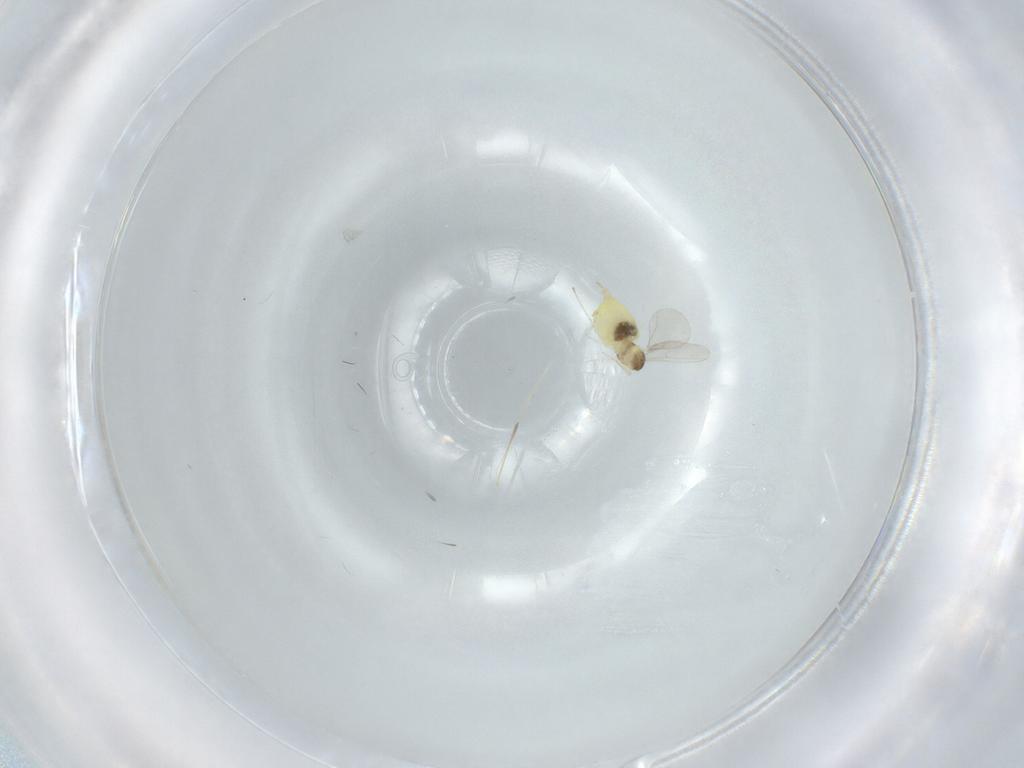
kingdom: Animalia
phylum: Arthropoda
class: Insecta
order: Diptera
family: Cecidomyiidae
